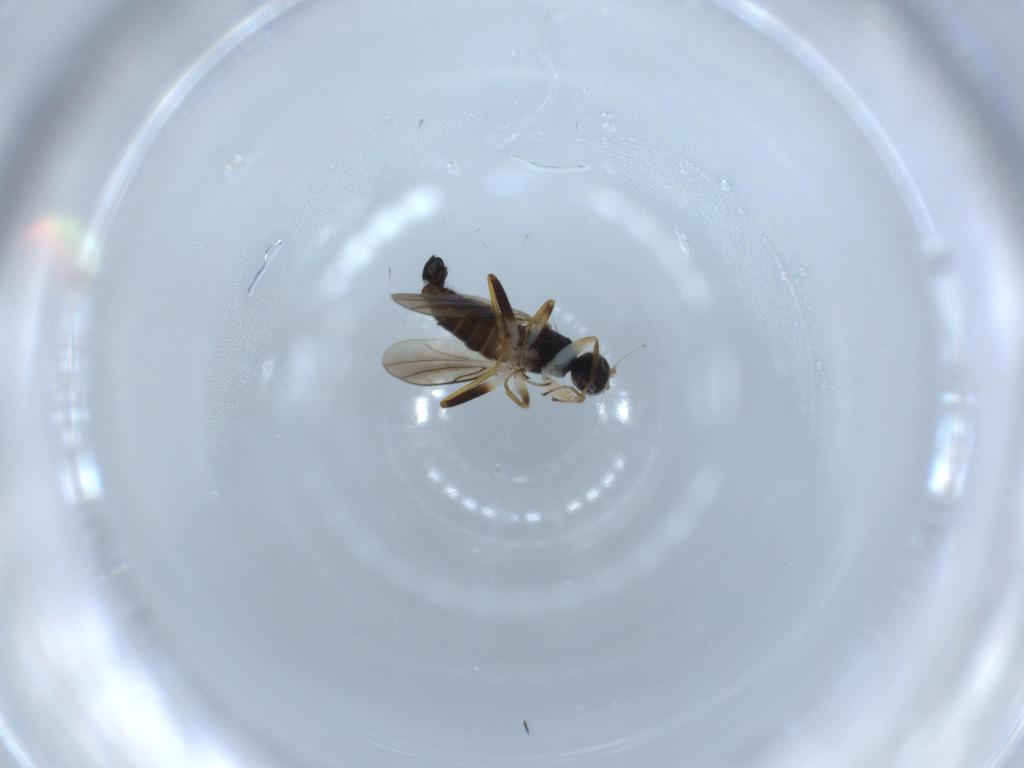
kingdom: Animalia
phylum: Arthropoda
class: Insecta
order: Diptera
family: Hybotidae
